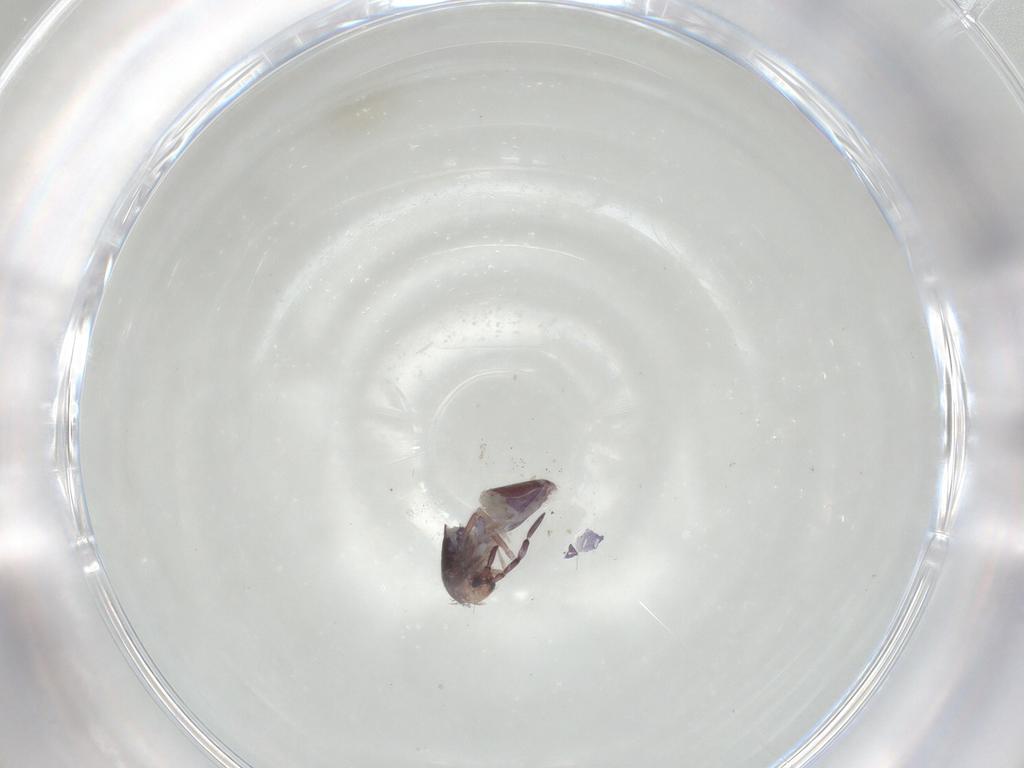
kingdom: Animalia
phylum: Arthropoda
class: Collembola
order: Entomobryomorpha
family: Entomobryidae
